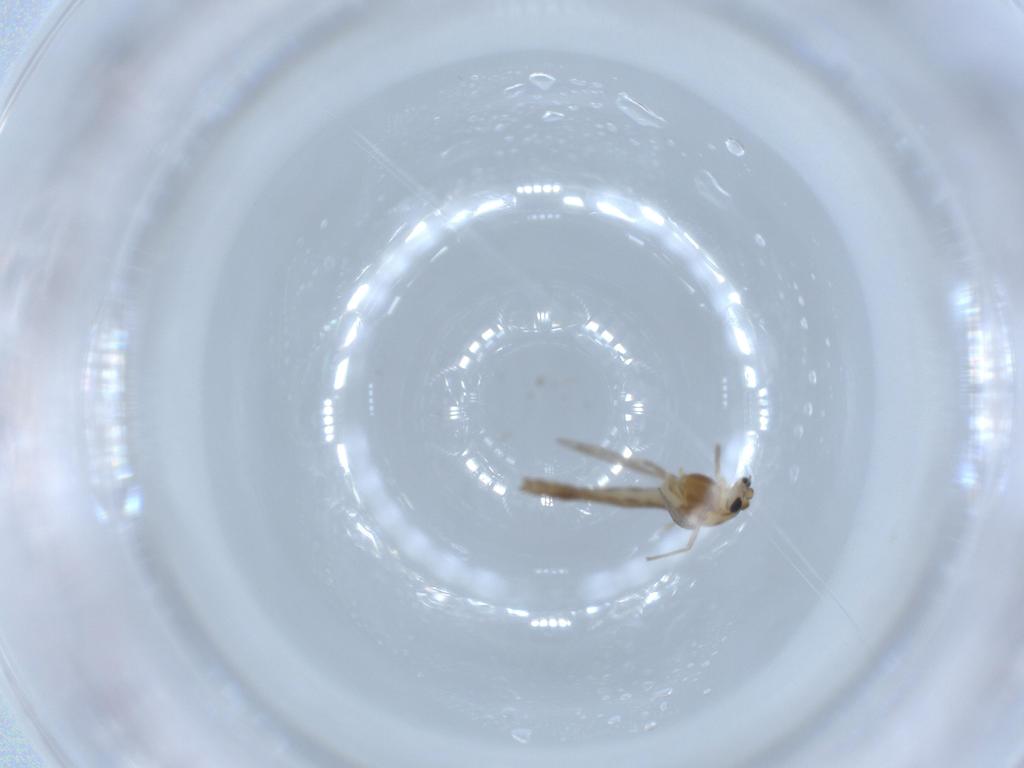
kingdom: Animalia
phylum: Arthropoda
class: Insecta
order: Diptera
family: Chironomidae
